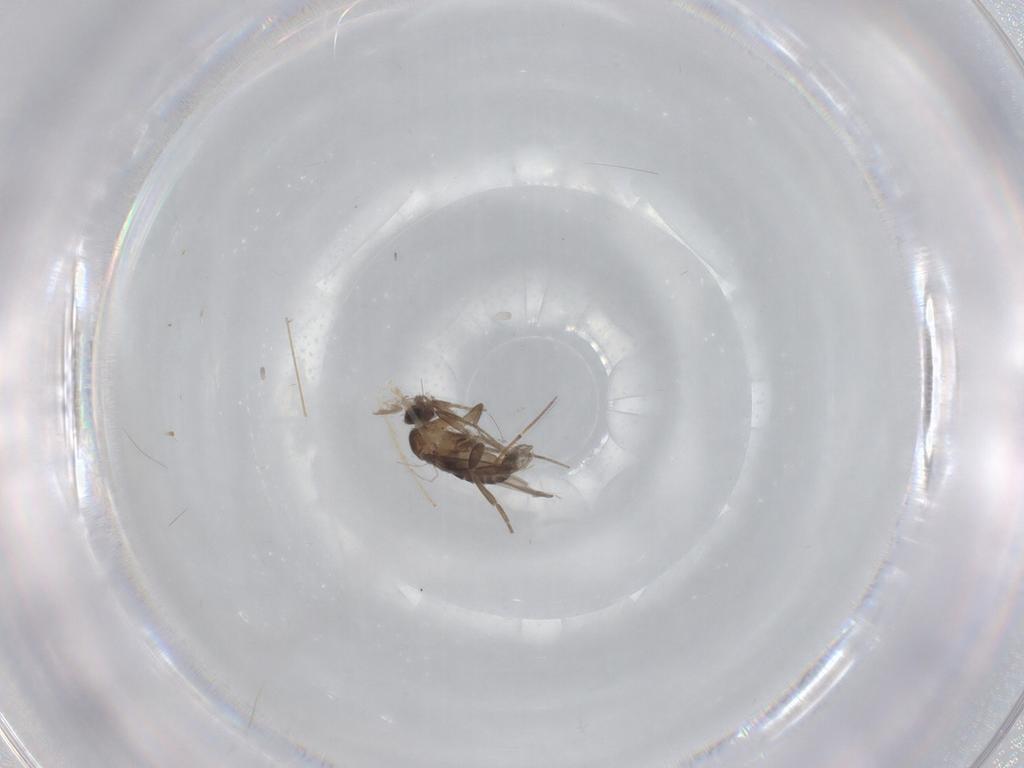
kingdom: Animalia
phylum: Arthropoda
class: Insecta
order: Diptera
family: Phoridae
